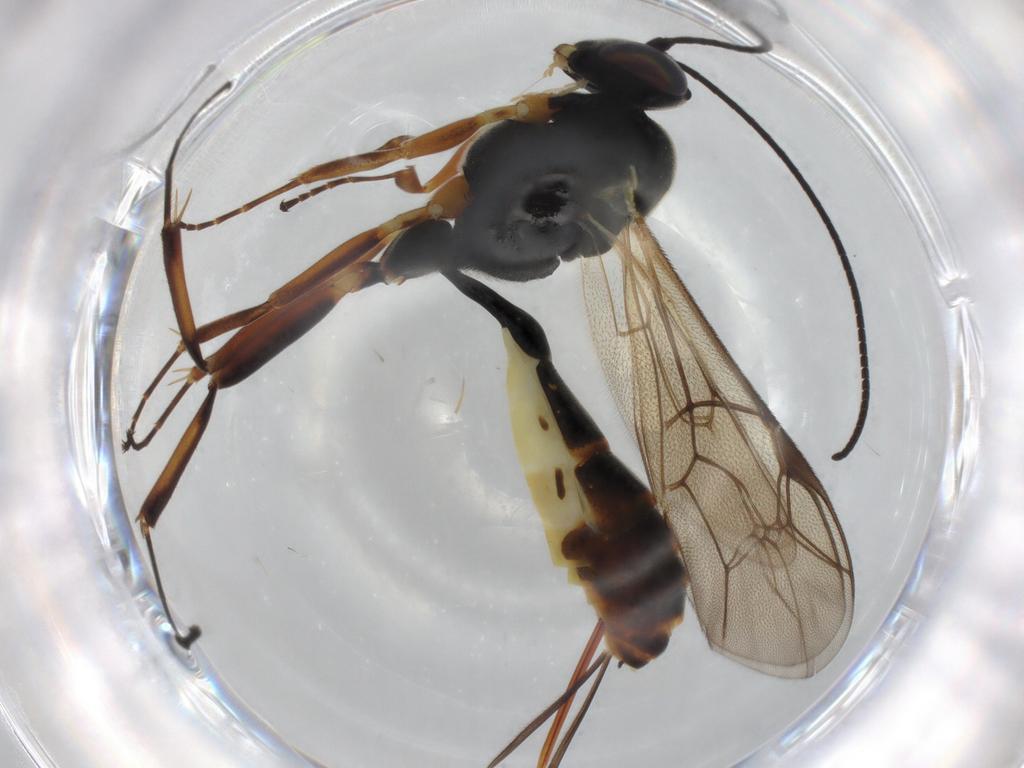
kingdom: Animalia
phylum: Arthropoda
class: Insecta
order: Hymenoptera
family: Ichneumonidae
